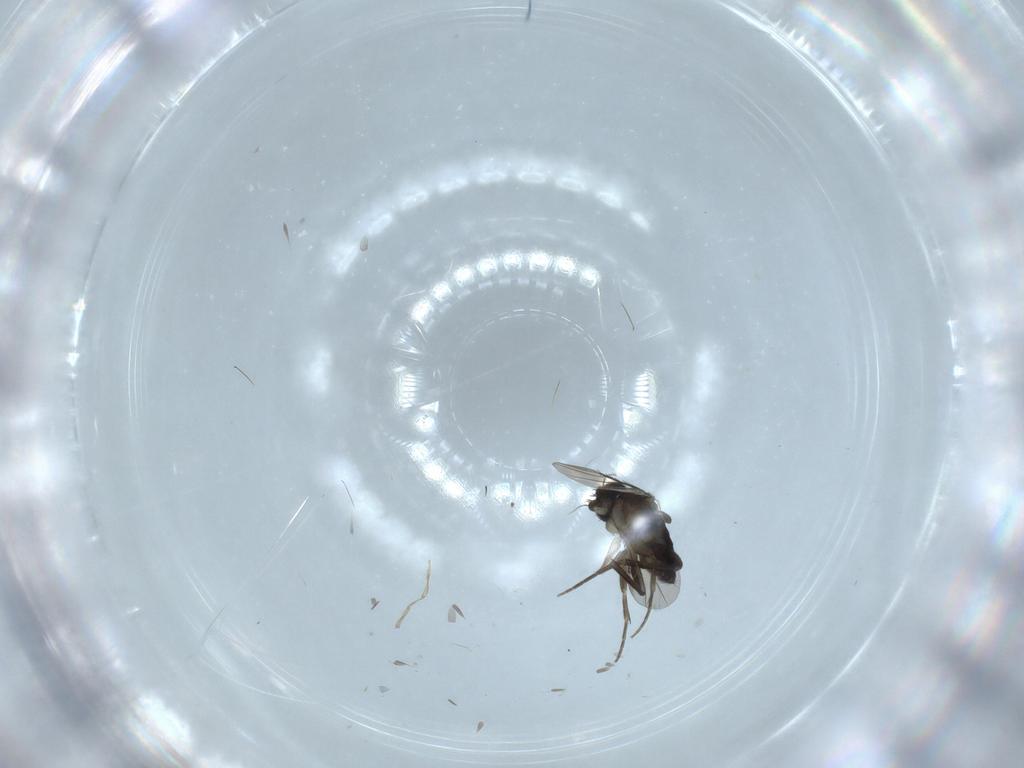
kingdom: Animalia
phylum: Arthropoda
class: Insecta
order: Diptera
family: Phoridae
